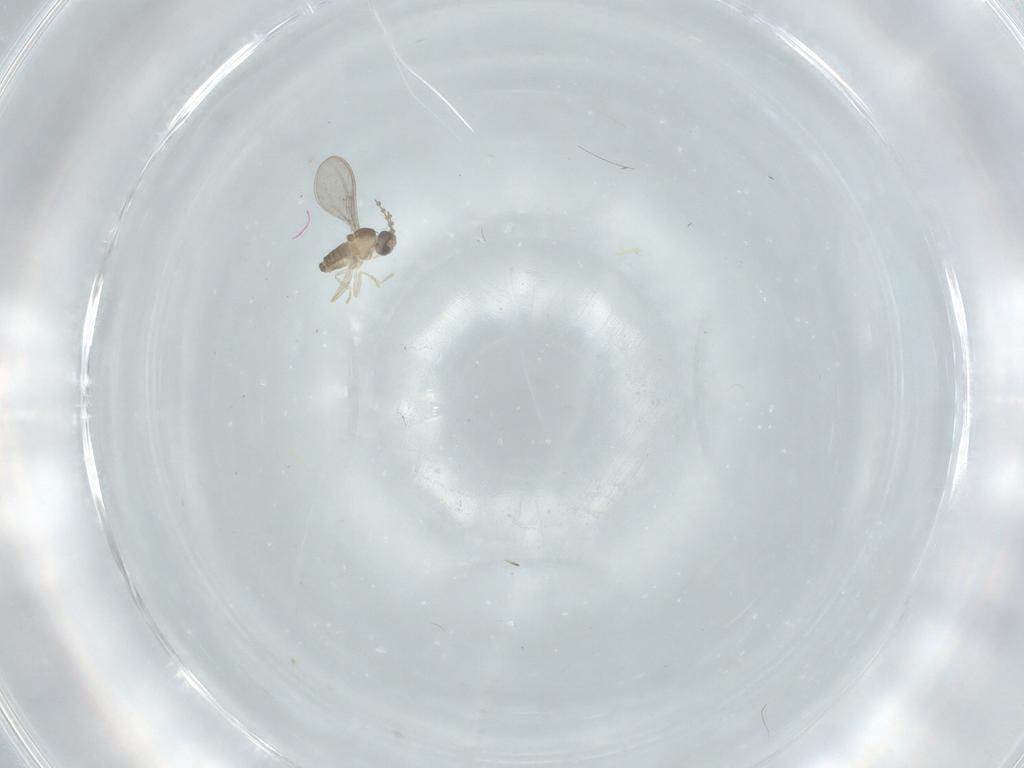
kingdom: Animalia
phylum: Arthropoda
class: Insecta
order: Diptera
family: Cecidomyiidae
